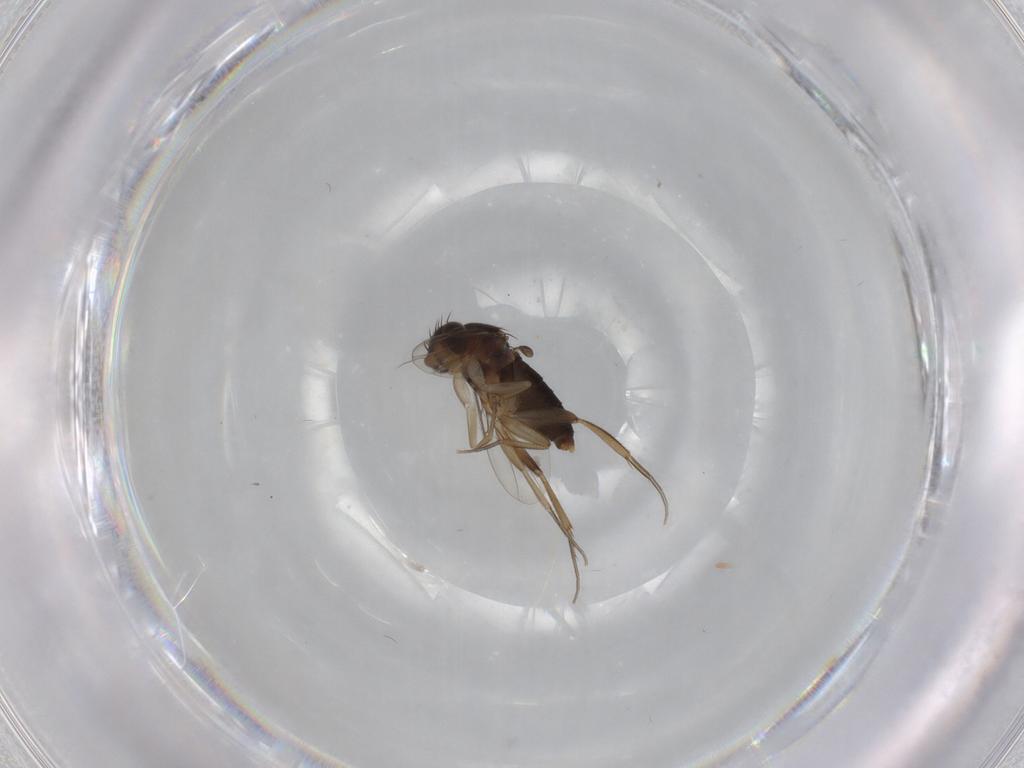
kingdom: Animalia
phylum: Arthropoda
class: Insecta
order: Diptera
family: Phoridae
